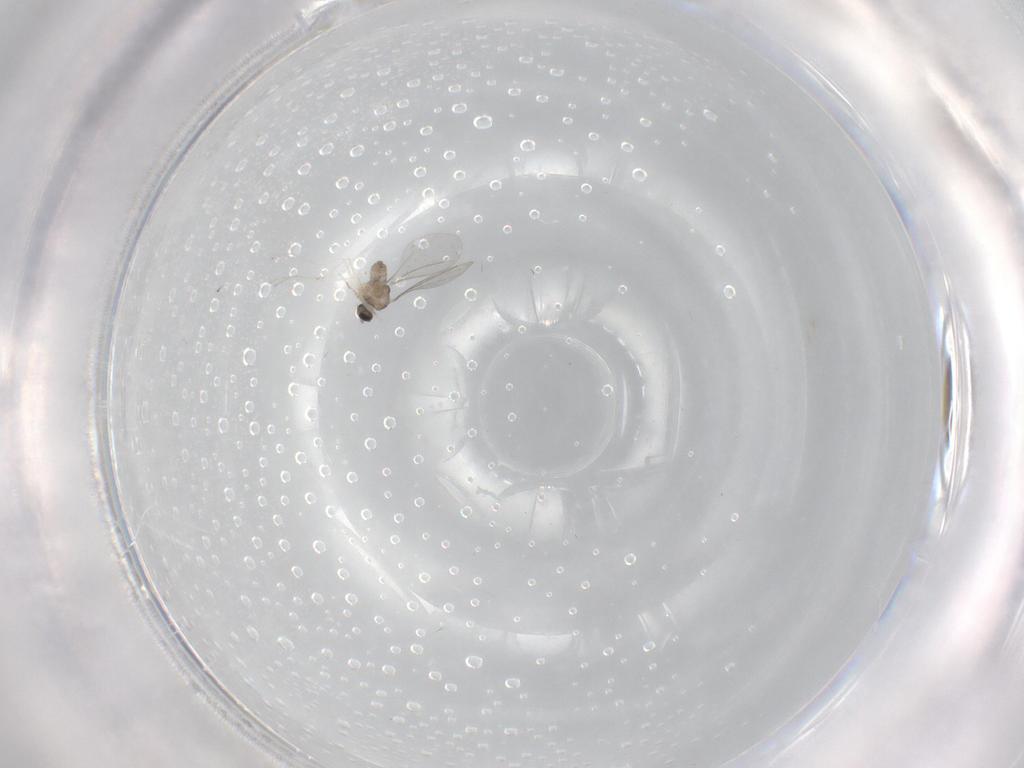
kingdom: Animalia
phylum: Arthropoda
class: Insecta
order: Diptera
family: Cecidomyiidae
